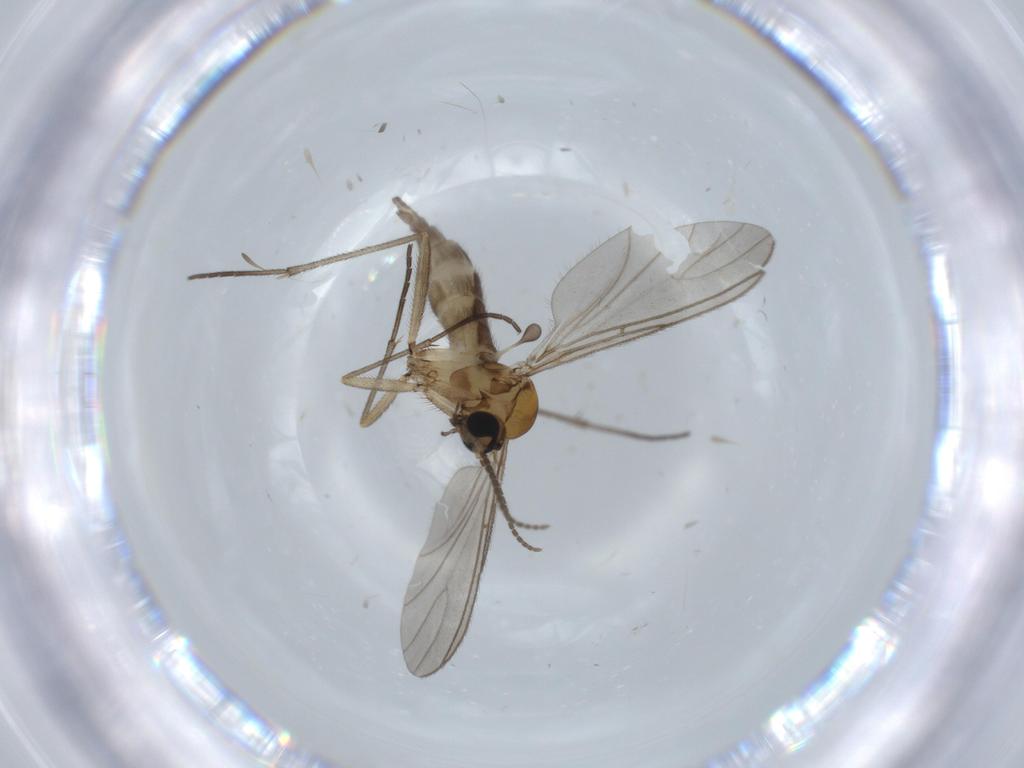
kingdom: Animalia
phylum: Arthropoda
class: Insecta
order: Diptera
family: Sciaridae
